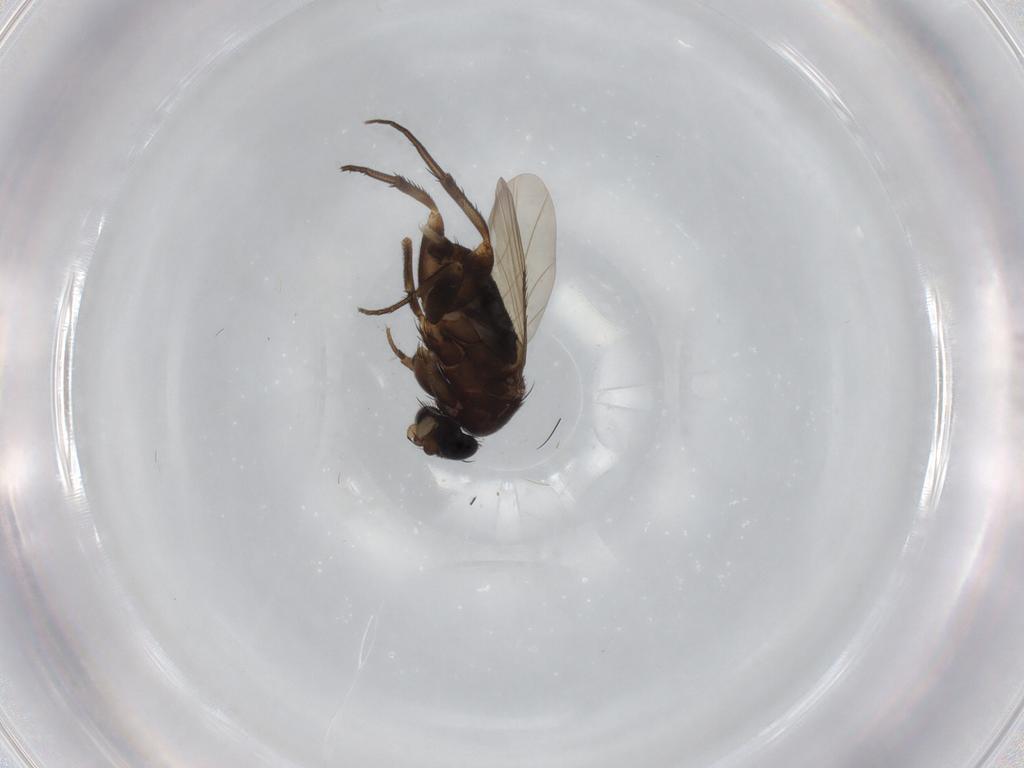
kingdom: Animalia
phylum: Arthropoda
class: Insecta
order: Diptera
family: Phoridae
